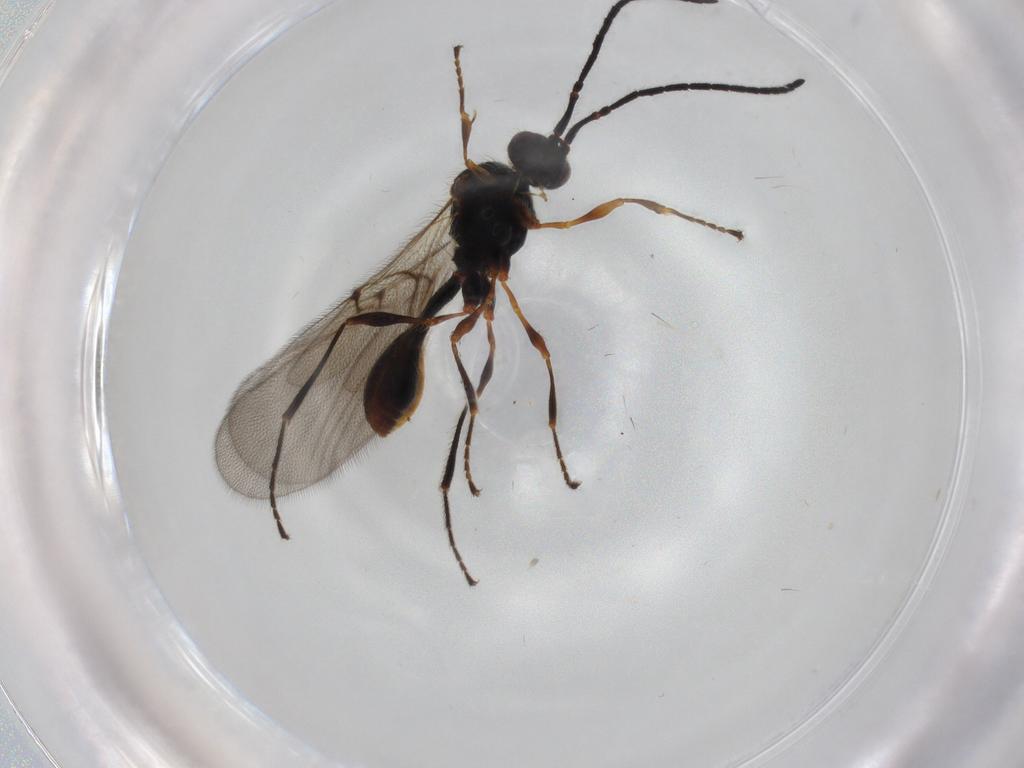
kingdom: Animalia
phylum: Arthropoda
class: Insecta
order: Hymenoptera
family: Diapriidae
